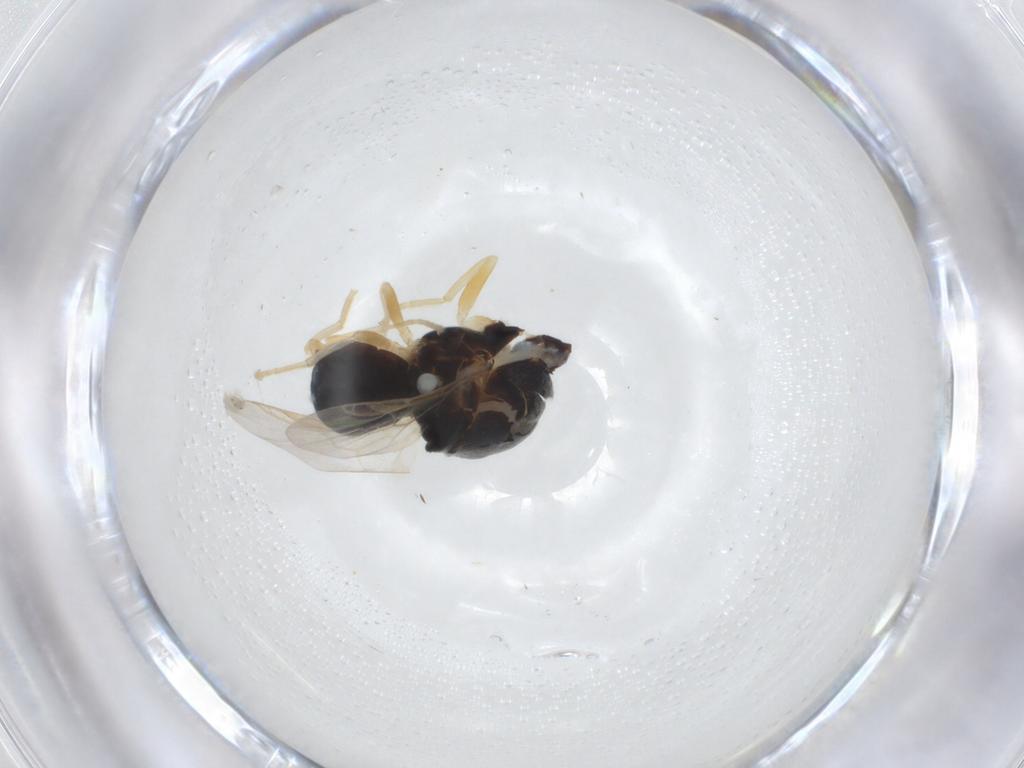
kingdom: Animalia
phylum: Arthropoda
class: Insecta
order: Diptera
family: Stratiomyidae
